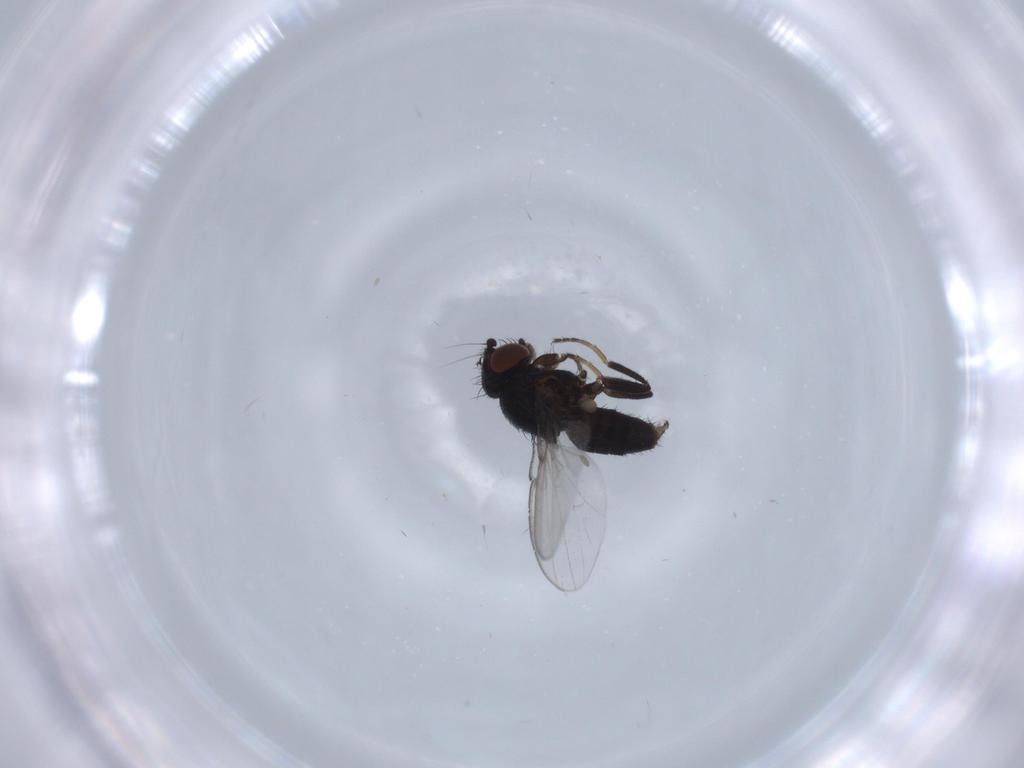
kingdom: Animalia
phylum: Arthropoda
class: Insecta
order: Diptera
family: Milichiidae
